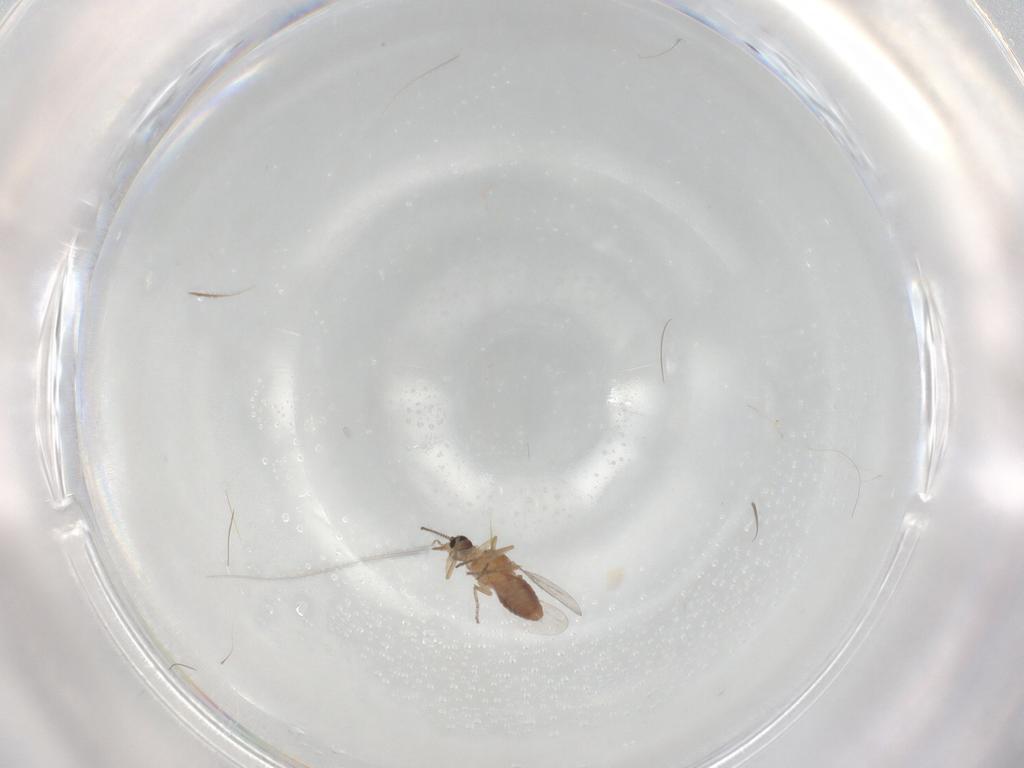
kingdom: Animalia
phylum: Arthropoda
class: Insecta
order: Diptera
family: Ceratopogonidae
